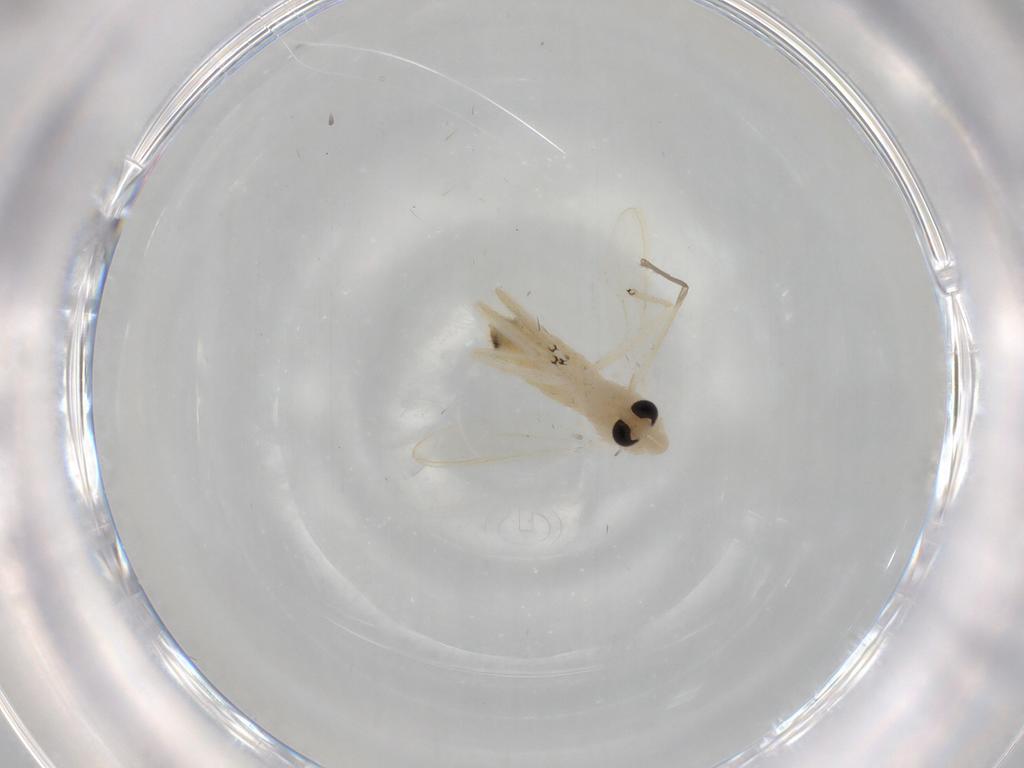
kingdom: Animalia
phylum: Arthropoda
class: Insecta
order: Diptera
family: Chironomidae
